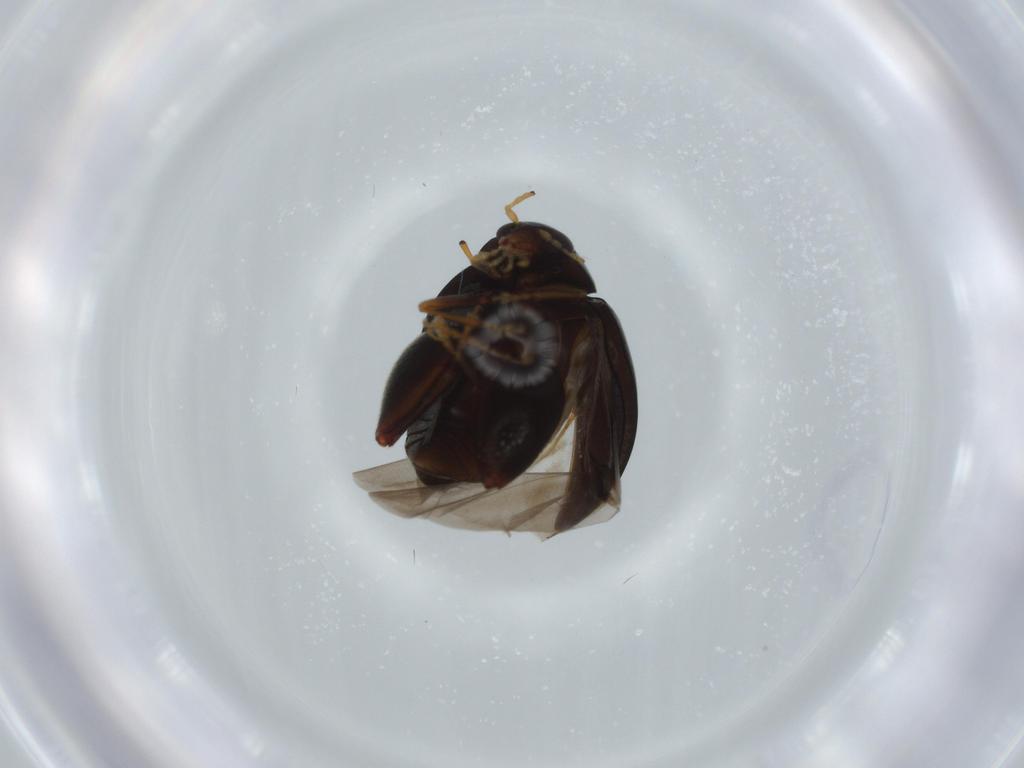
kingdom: Animalia
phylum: Arthropoda
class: Insecta
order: Coleoptera
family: Chrysomelidae
